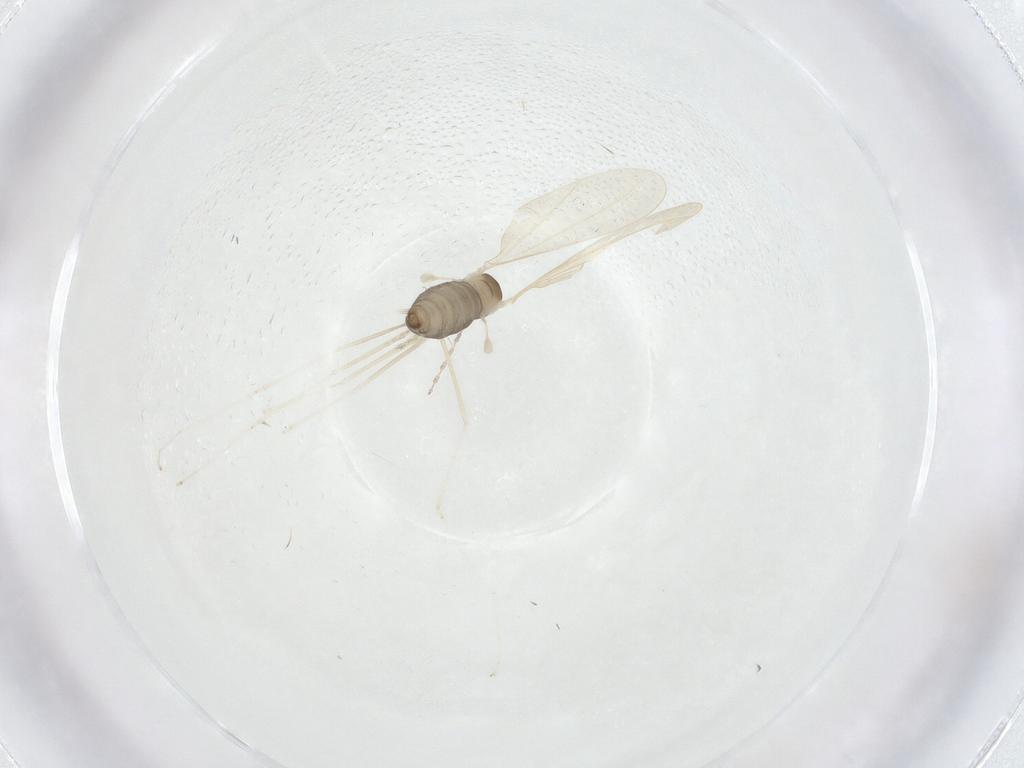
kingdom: Animalia
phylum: Arthropoda
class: Insecta
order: Diptera
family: Cecidomyiidae
